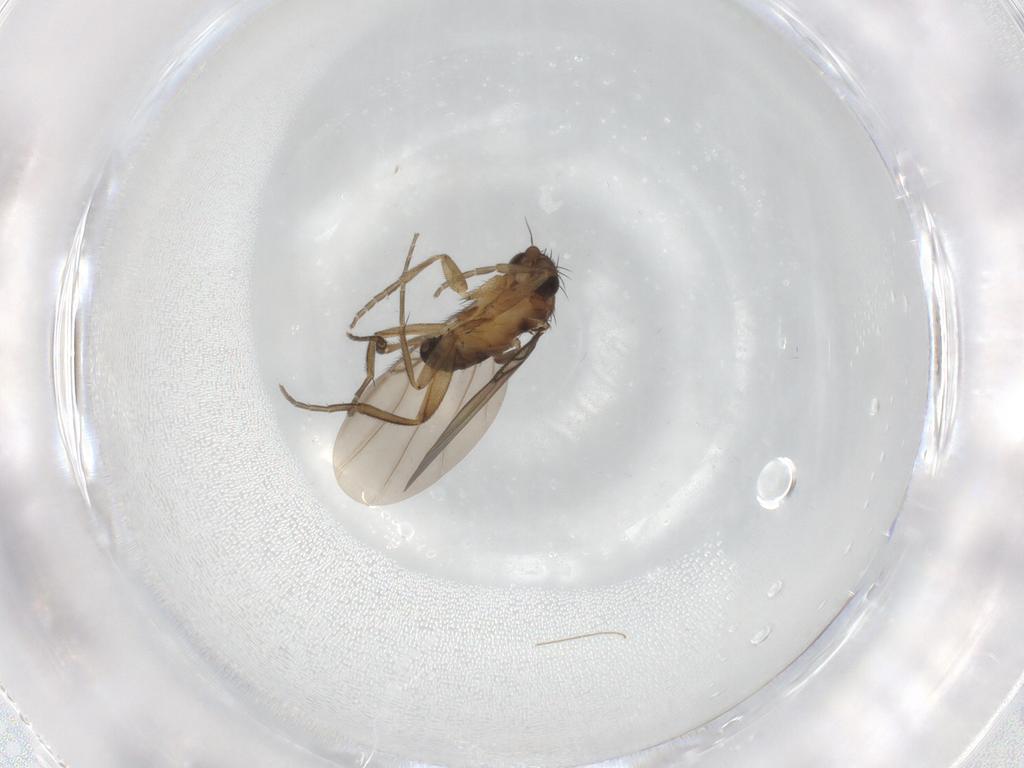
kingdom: Animalia
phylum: Arthropoda
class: Insecta
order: Diptera
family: Phoridae
